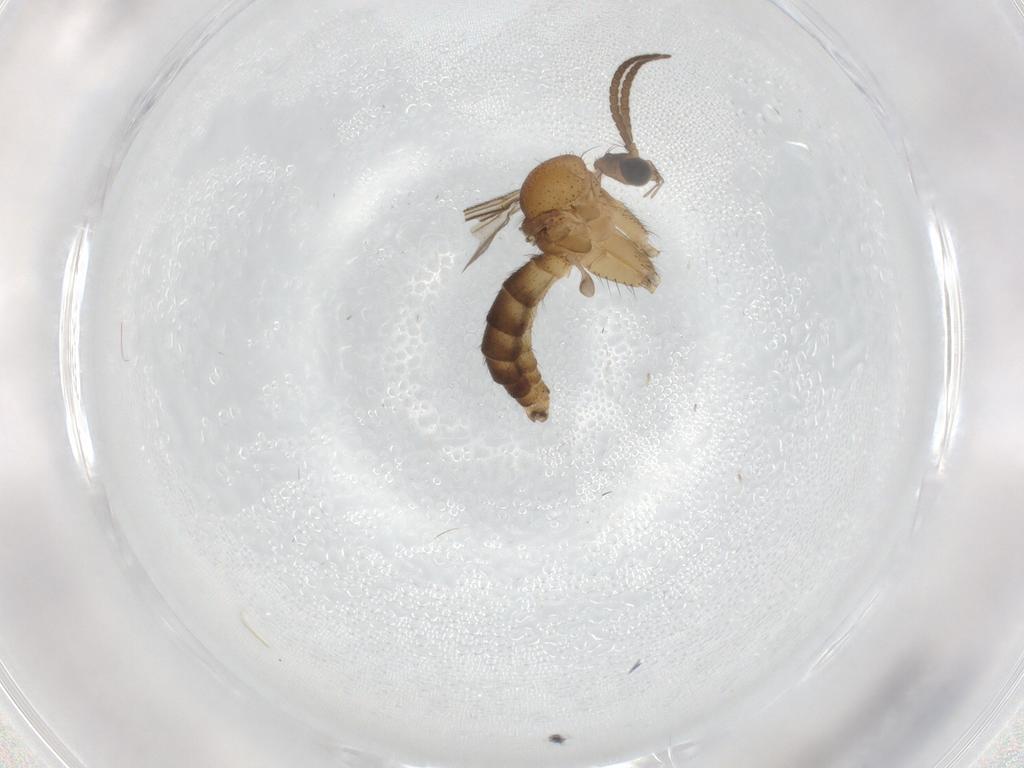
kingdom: Animalia
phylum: Arthropoda
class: Insecta
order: Diptera
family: Cecidomyiidae
